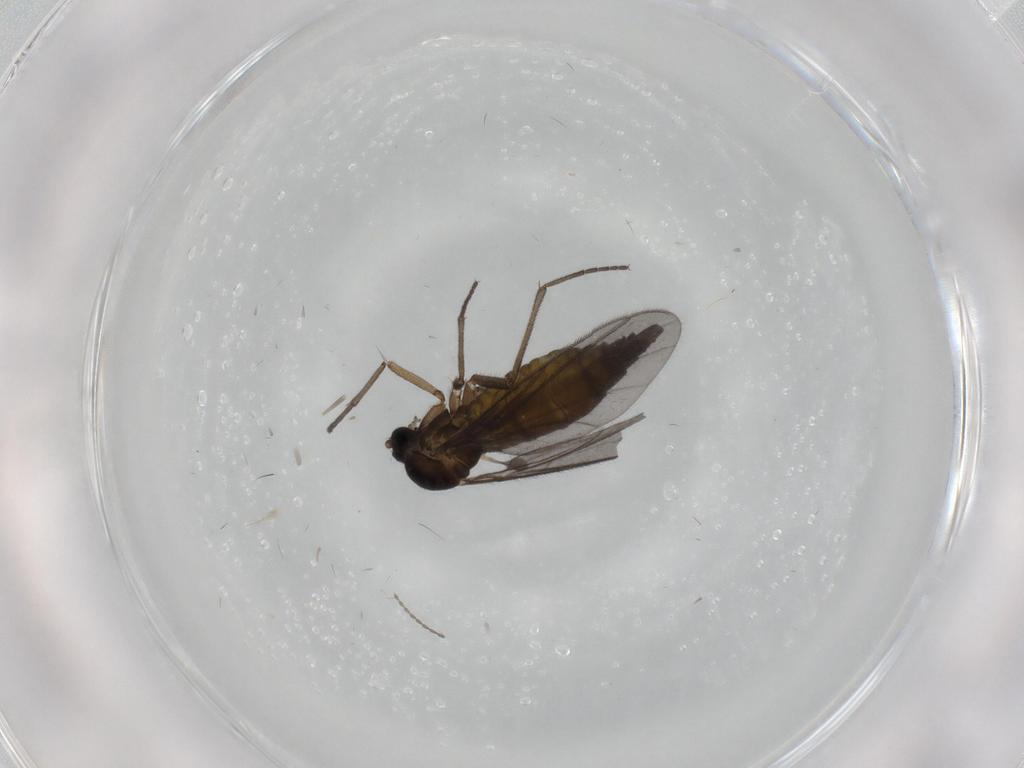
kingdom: Animalia
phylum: Arthropoda
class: Insecta
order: Diptera
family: Sciaridae
